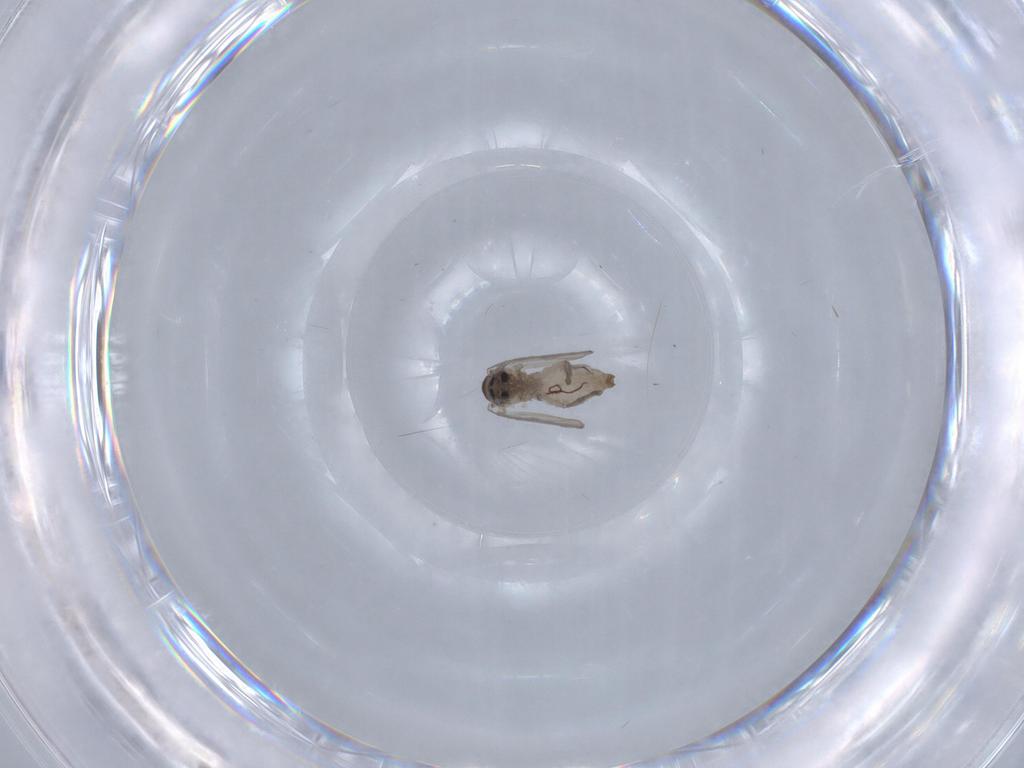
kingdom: Animalia
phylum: Arthropoda
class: Insecta
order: Diptera
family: Psychodidae
